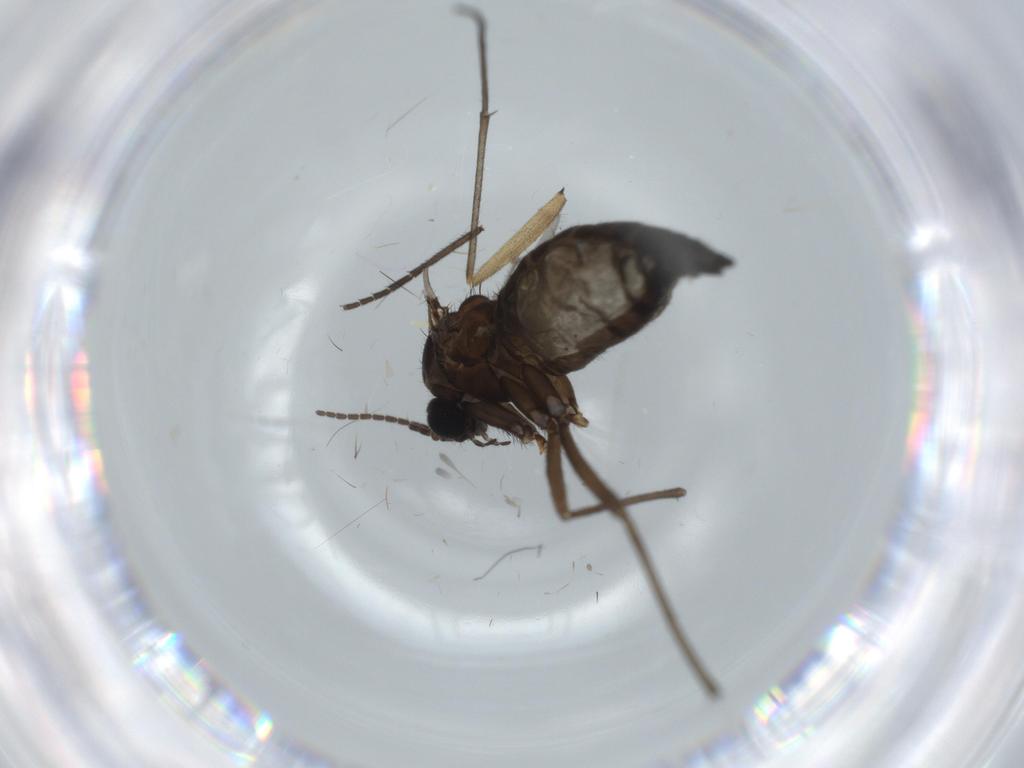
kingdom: Animalia
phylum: Arthropoda
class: Insecta
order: Diptera
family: Sciaridae
